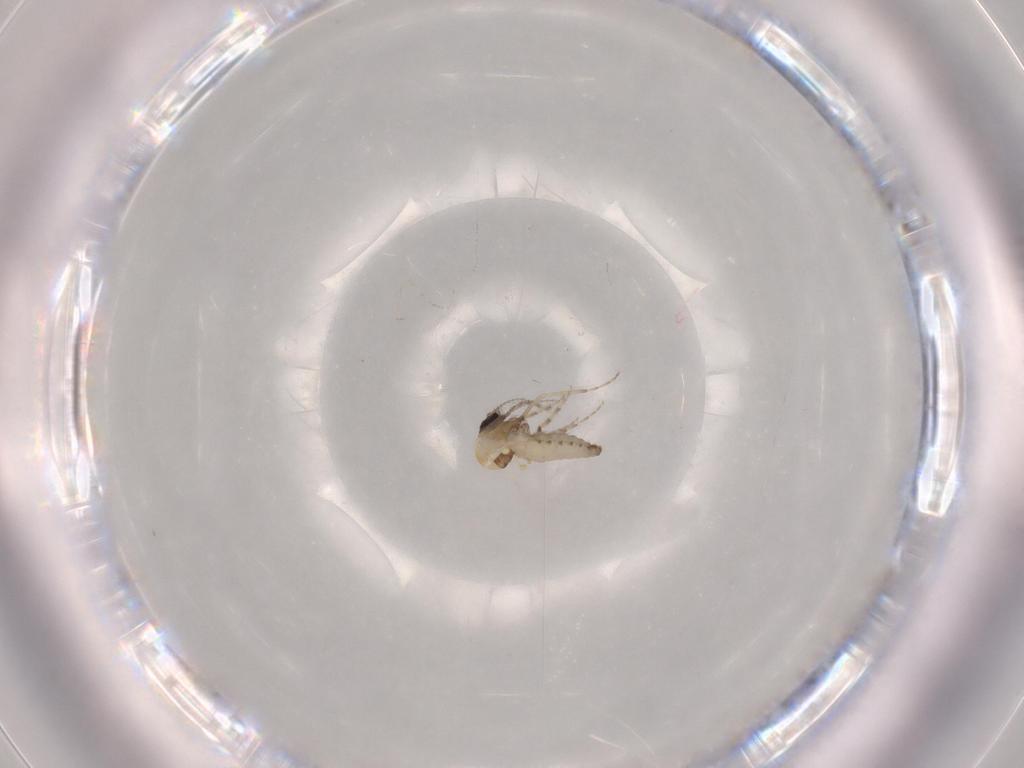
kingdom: Animalia
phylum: Arthropoda
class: Insecta
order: Diptera
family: Ceratopogonidae
